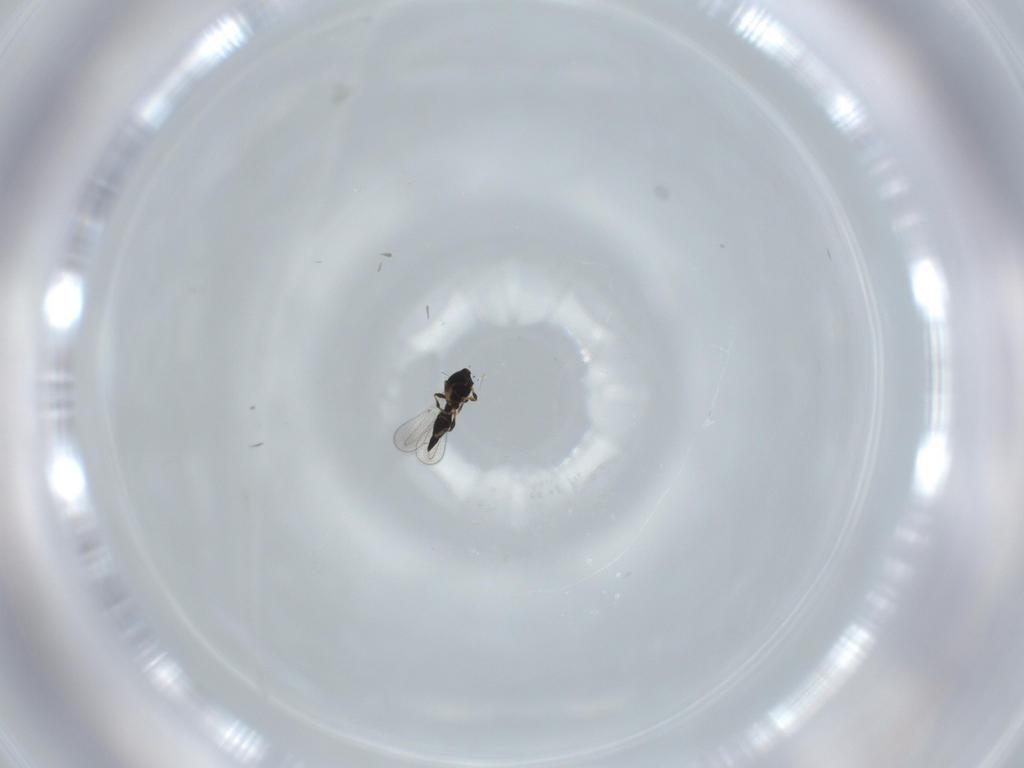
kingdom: Animalia
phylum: Arthropoda
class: Insecta
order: Hymenoptera
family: Platygastridae
